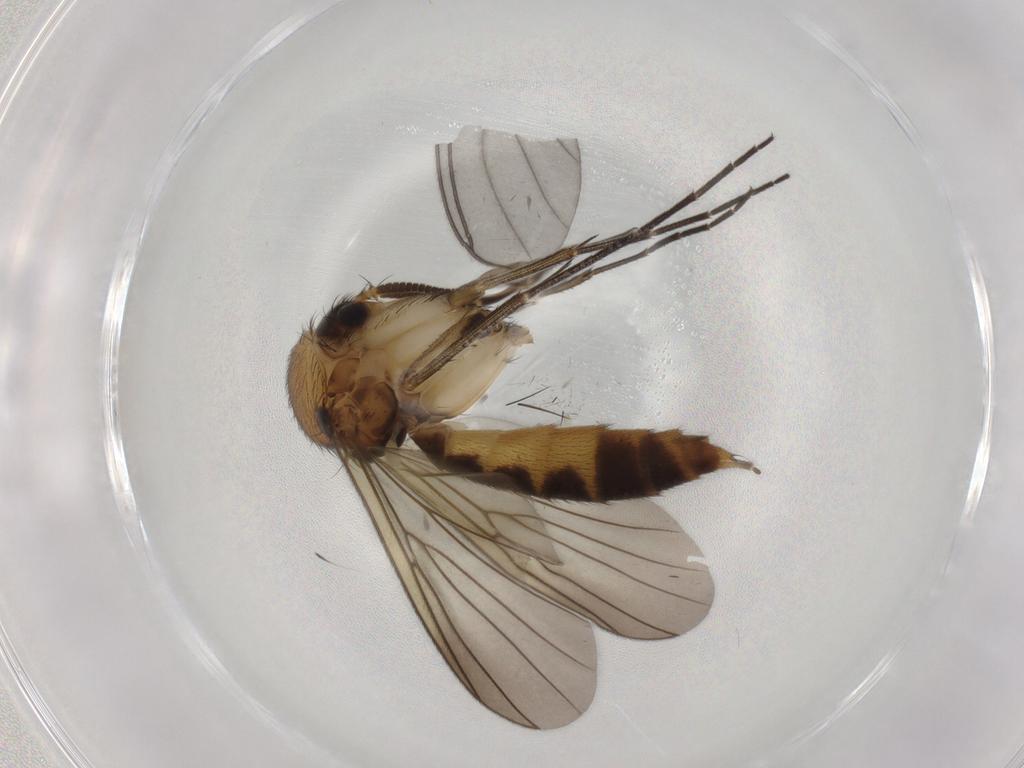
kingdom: Animalia
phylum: Arthropoda
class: Insecta
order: Diptera
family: Mycetophilidae
